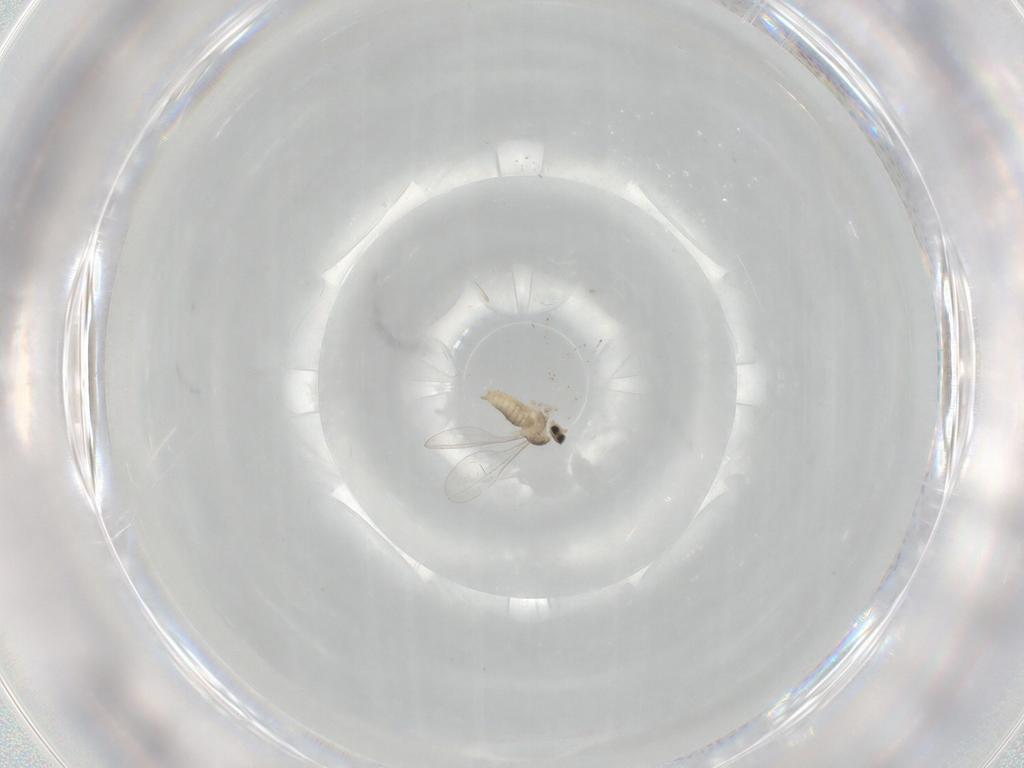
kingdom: Animalia
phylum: Arthropoda
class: Insecta
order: Diptera
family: Cecidomyiidae
